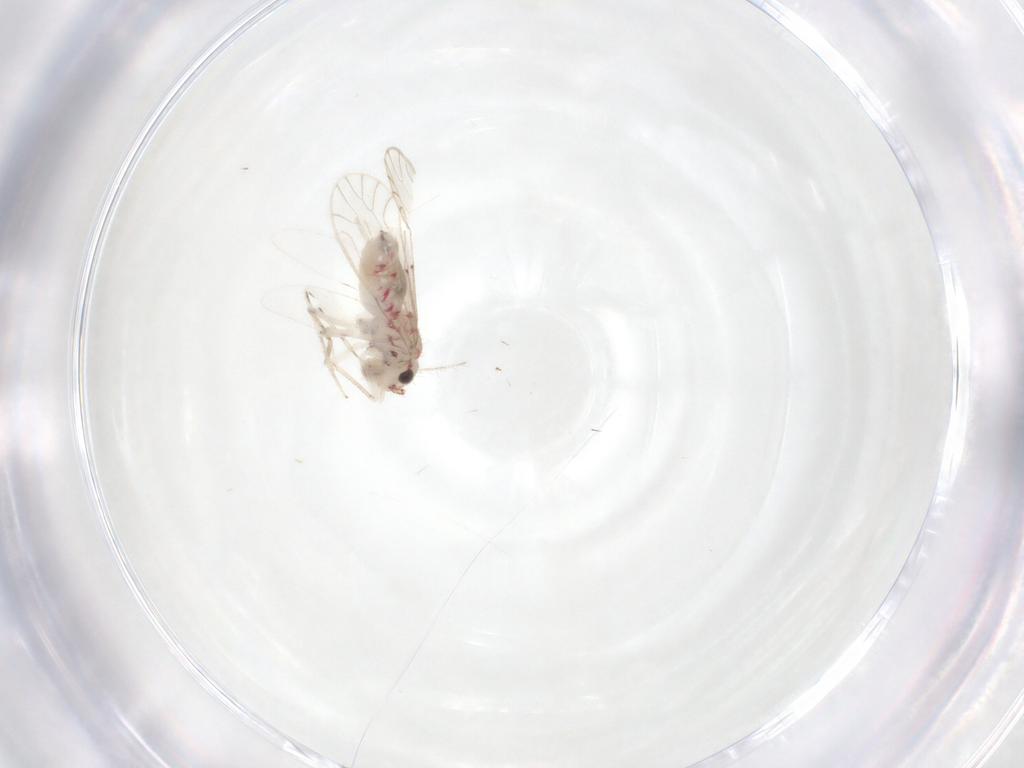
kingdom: Animalia
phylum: Arthropoda
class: Insecta
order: Psocodea
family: Caeciliusidae
